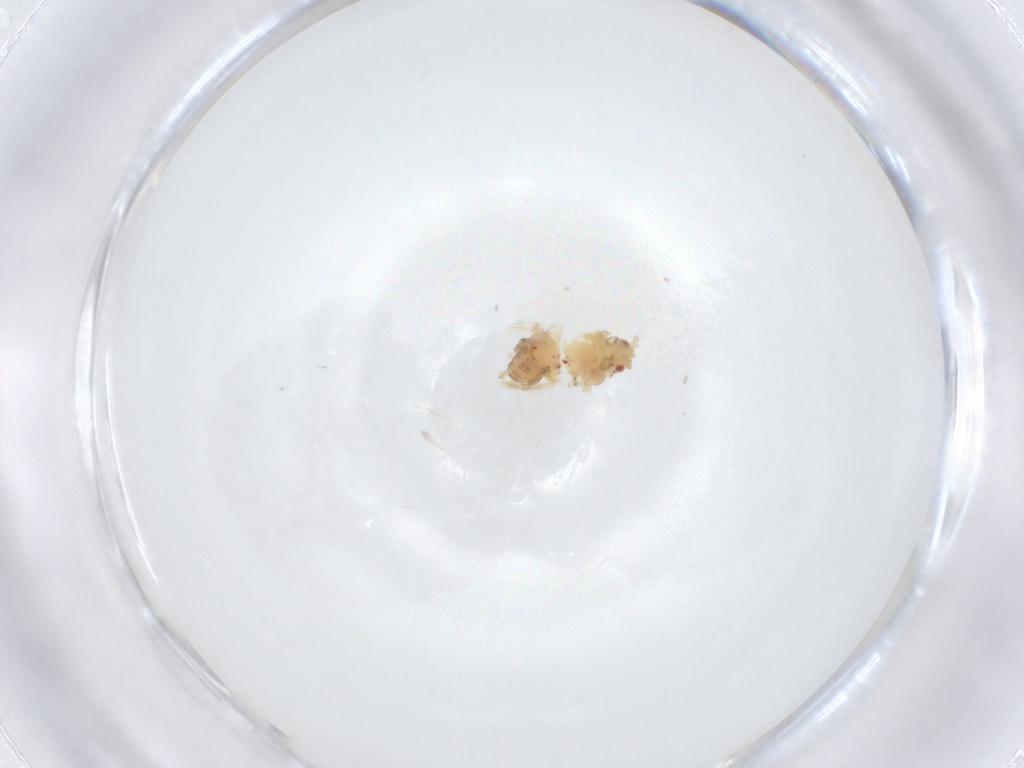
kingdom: Animalia
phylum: Arthropoda
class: Insecta
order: Hemiptera
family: Aphididae
